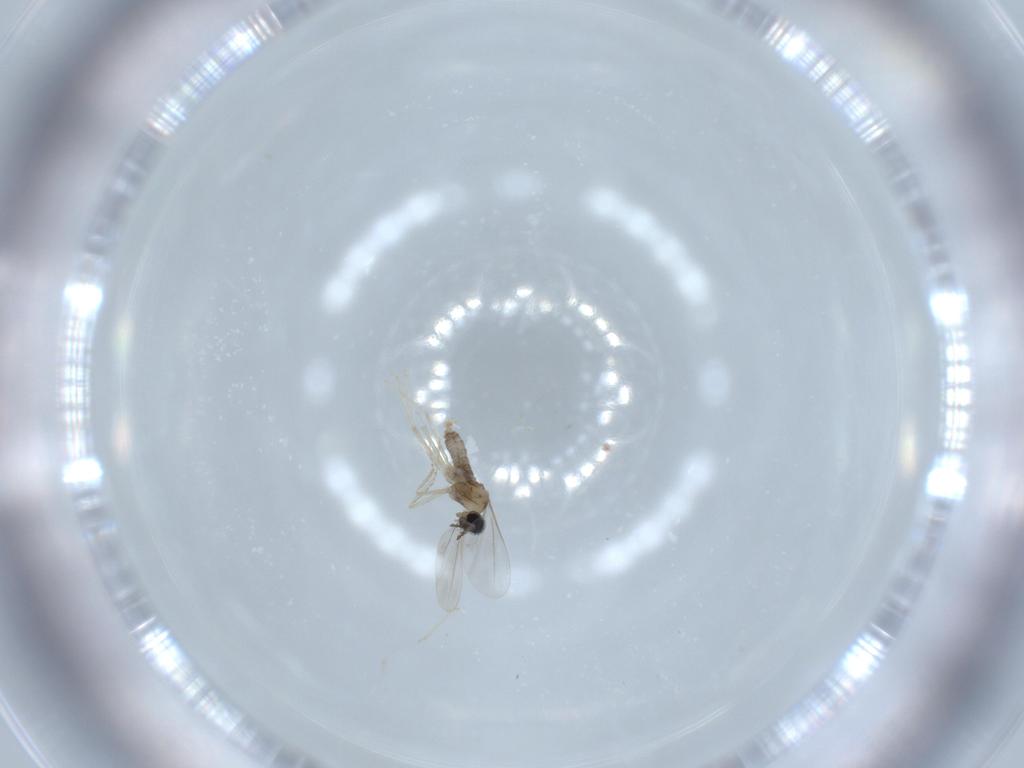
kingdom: Animalia
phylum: Arthropoda
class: Insecta
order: Diptera
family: Cecidomyiidae
